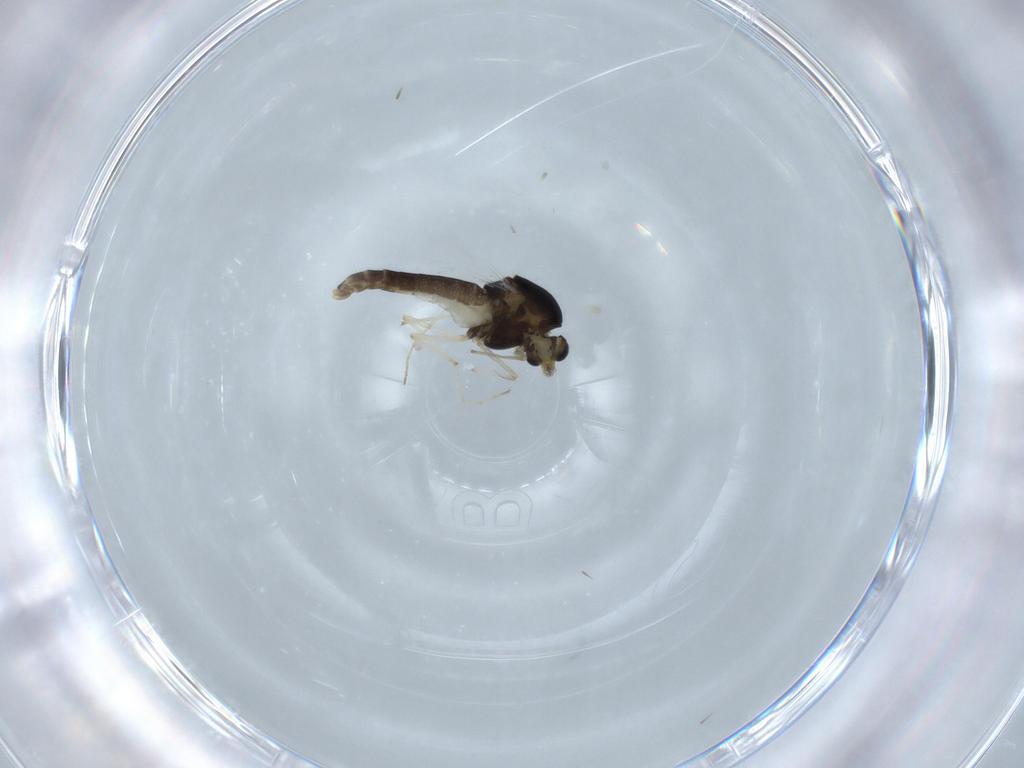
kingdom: Animalia
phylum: Arthropoda
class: Insecta
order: Diptera
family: Chironomidae
